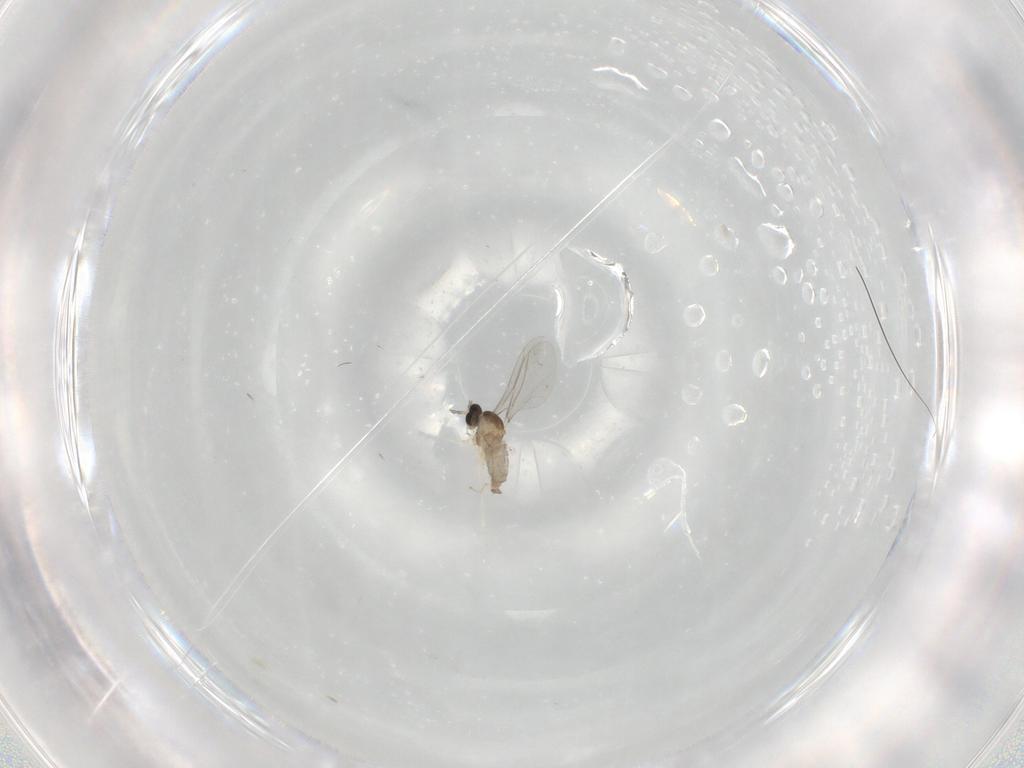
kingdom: Animalia
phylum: Arthropoda
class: Insecta
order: Diptera
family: Cecidomyiidae
